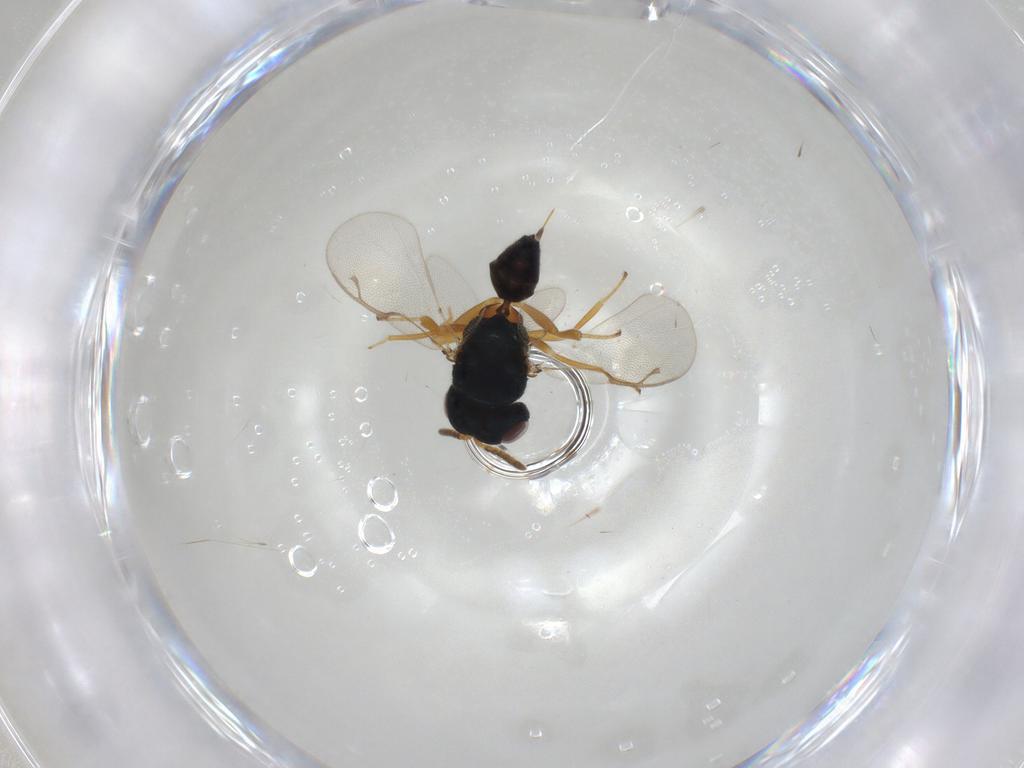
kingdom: Animalia
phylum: Arthropoda
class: Insecta
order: Hymenoptera
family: Pteromalidae
